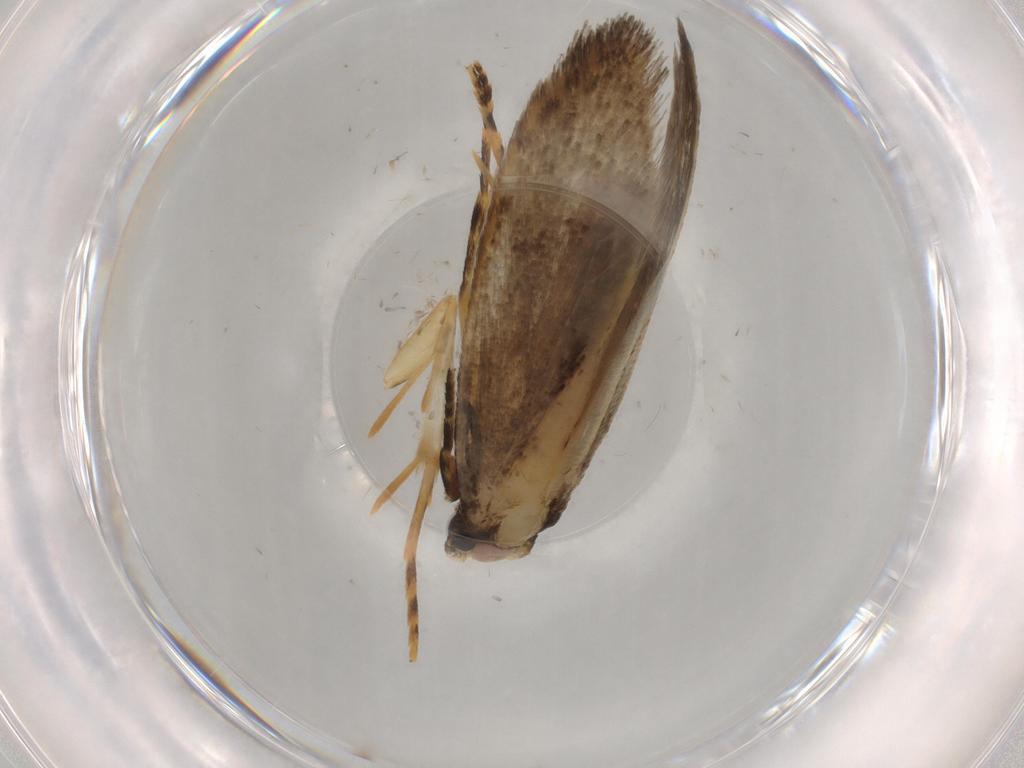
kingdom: Animalia
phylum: Arthropoda
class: Insecta
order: Lepidoptera
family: Tineidae
